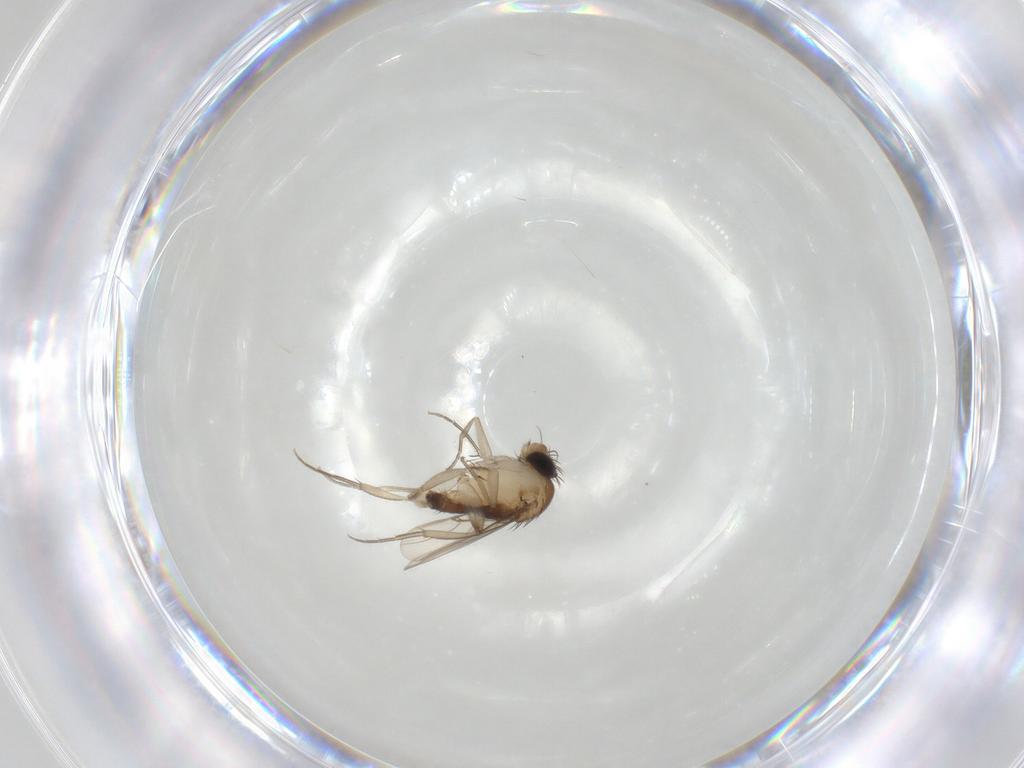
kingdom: Animalia
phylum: Arthropoda
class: Insecta
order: Diptera
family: Phoridae
